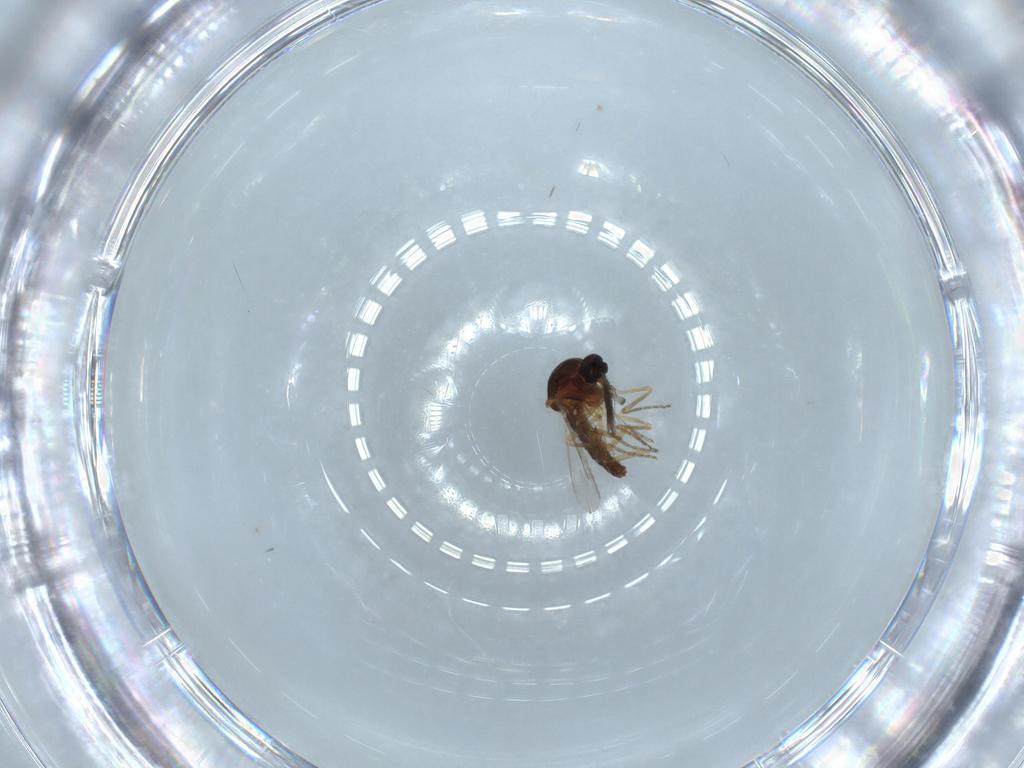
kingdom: Animalia
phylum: Arthropoda
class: Insecta
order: Diptera
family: Ceratopogonidae
